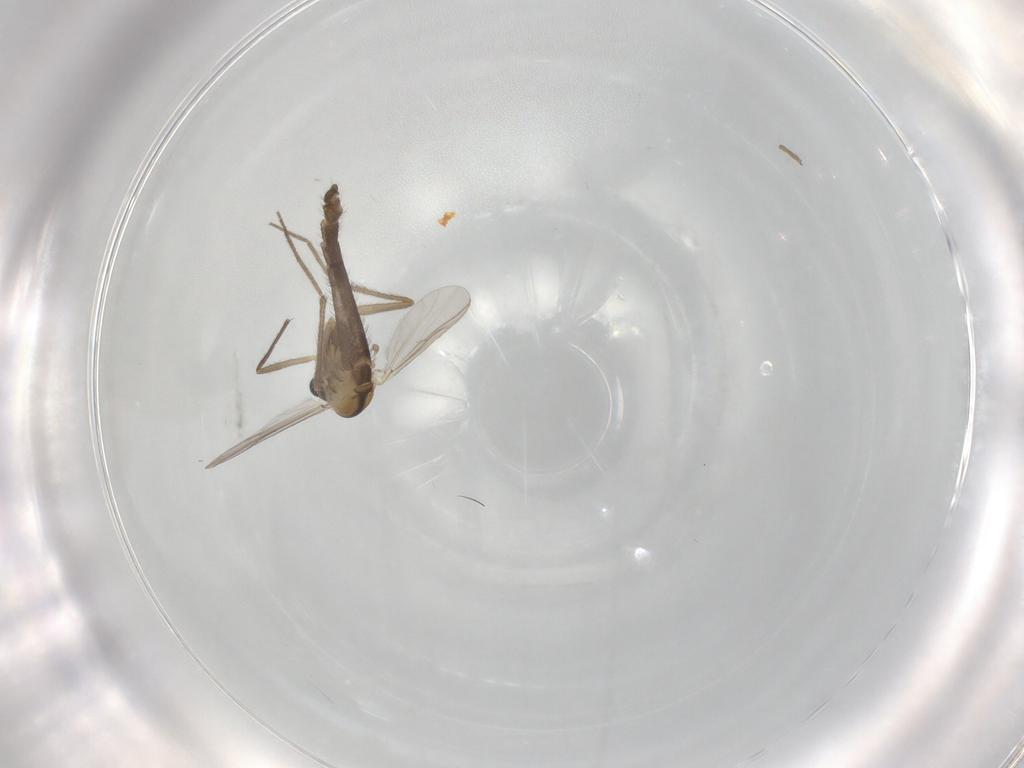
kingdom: Animalia
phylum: Arthropoda
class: Insecta
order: Diptera
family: Chironomidae
